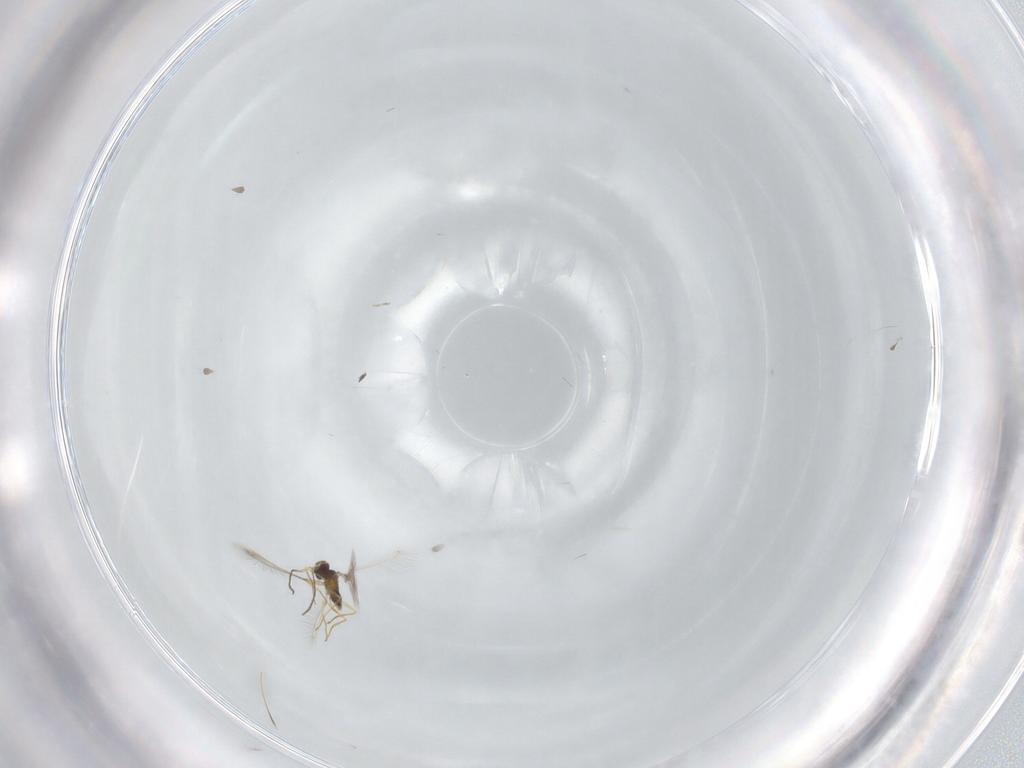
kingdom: Animalia
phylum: Arthropoda
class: Insecta
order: Hymenoptera
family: Mymaridae
